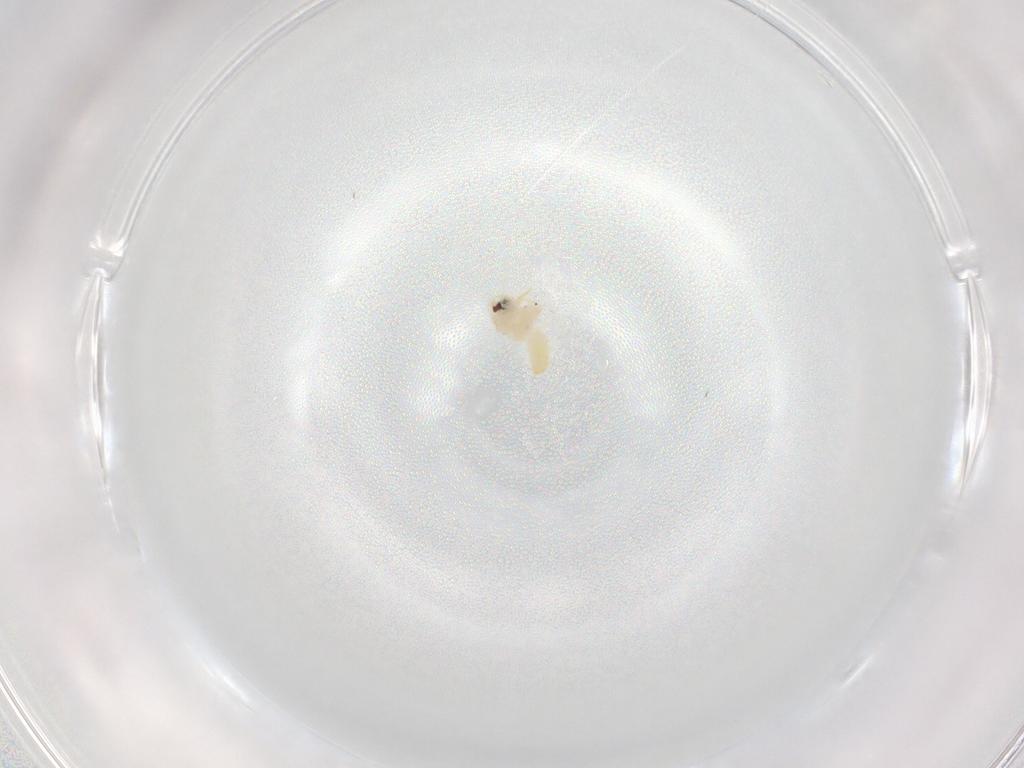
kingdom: Animalia
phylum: Arthropoda
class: Insecta
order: Hemiptera
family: Aleyrodidae
